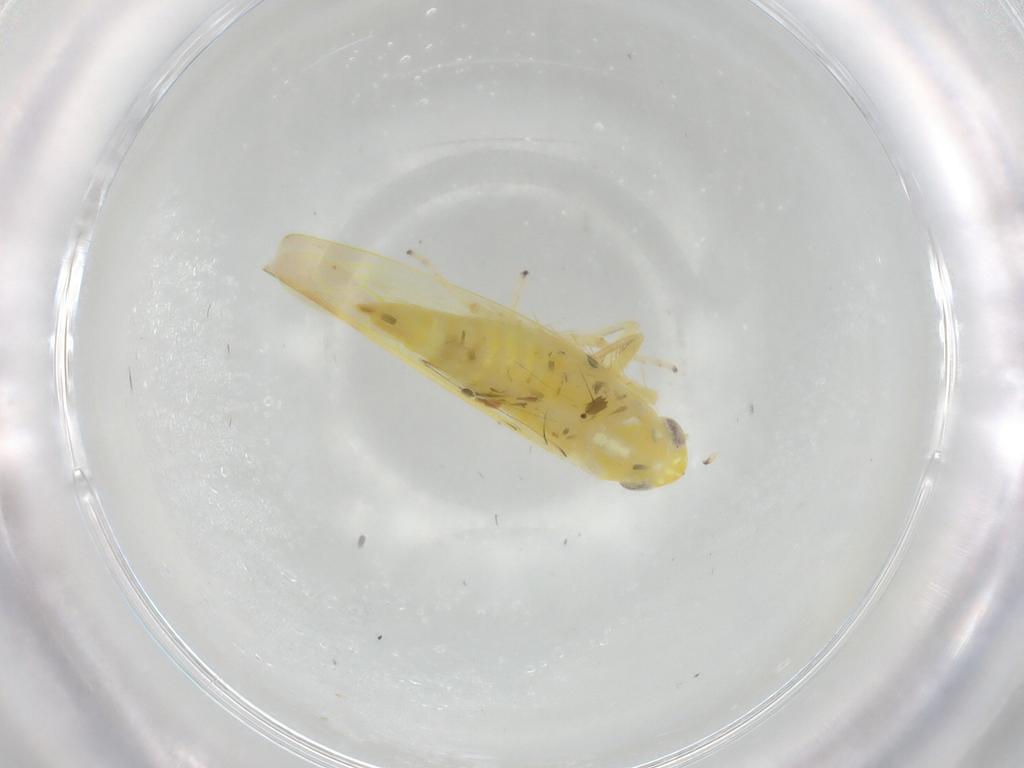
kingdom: Animalia
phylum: Arthropoda
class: Insecta
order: Hemiptera
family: Cicadellidae
